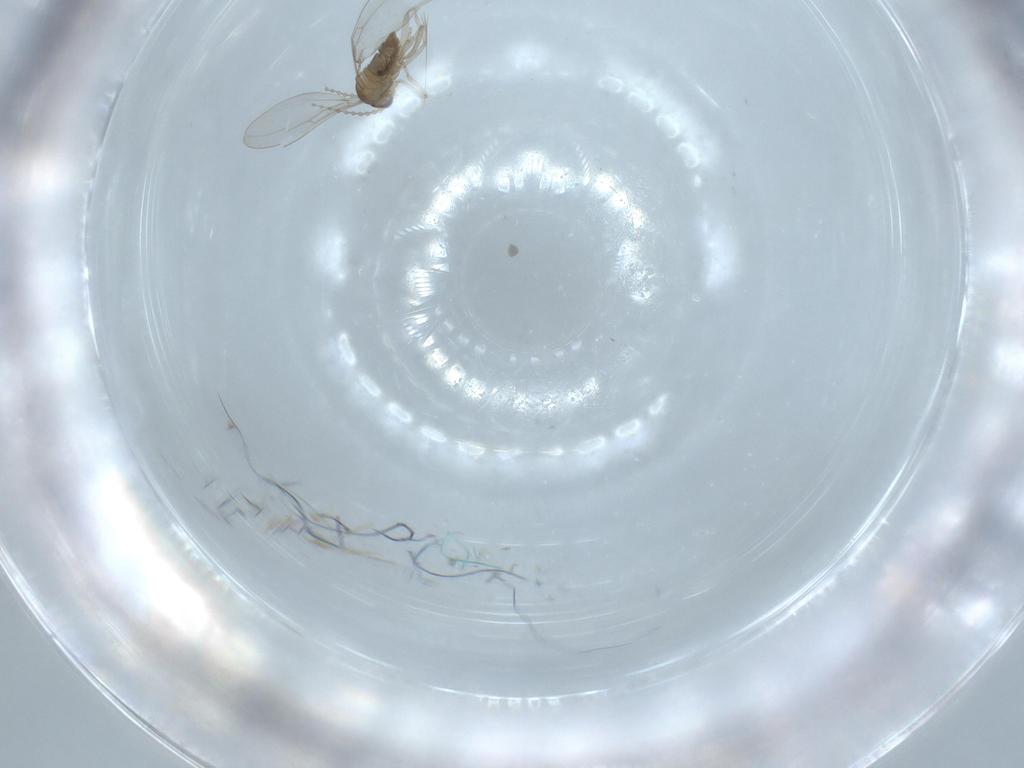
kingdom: Animalia
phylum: Arthropoda
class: Insecta
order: Diptera
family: Cecidomyiidae
